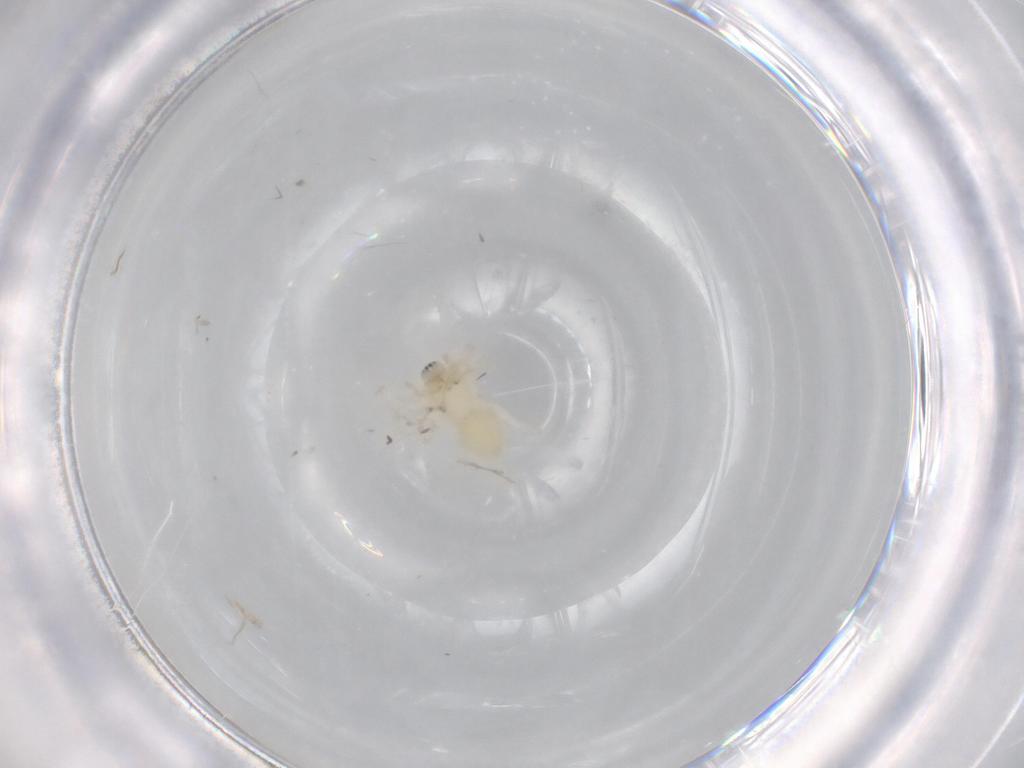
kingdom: Animalia
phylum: Arthropoda
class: Arachnida
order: Araneae
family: Anyphaenidae
